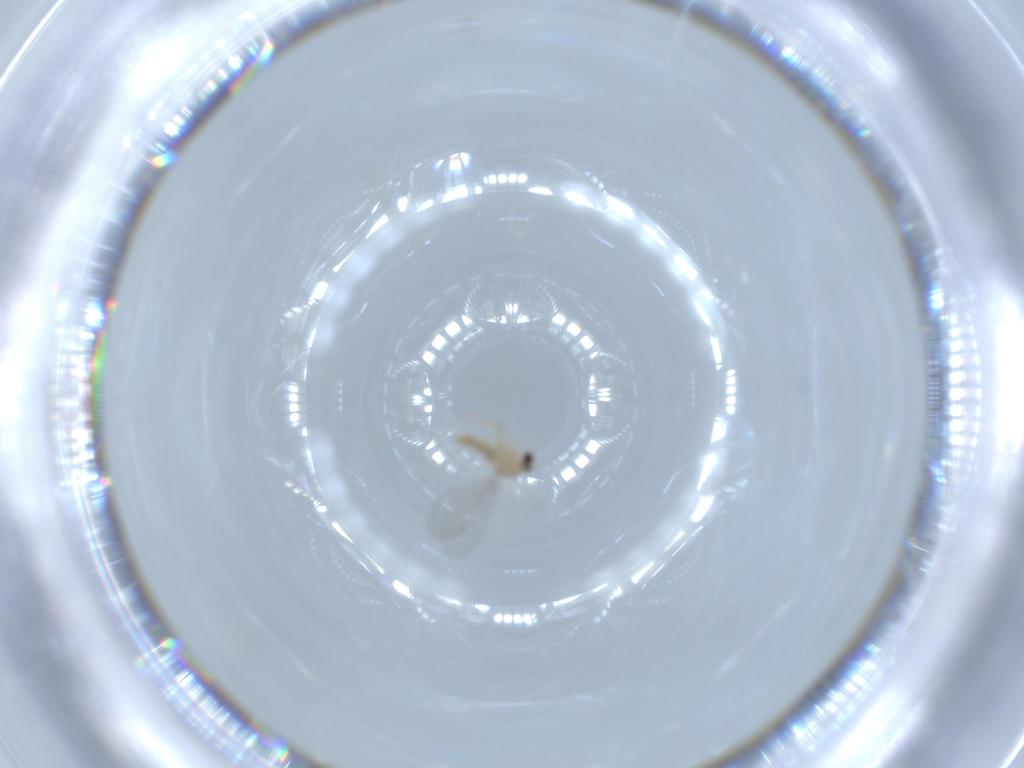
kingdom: Animalia
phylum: Arthropoda
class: Insecta
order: Diptera
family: Cecidomyiidae
